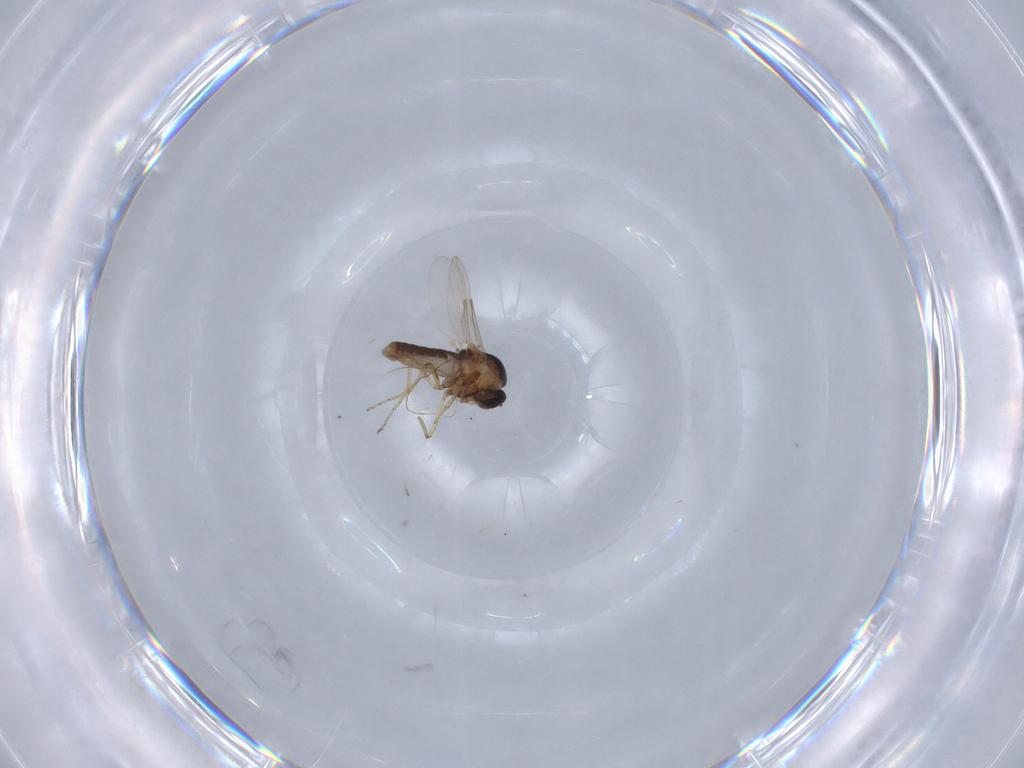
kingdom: Animalia
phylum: Arthropoda
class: Insecta
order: Diptera
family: Ceratopogonidae
